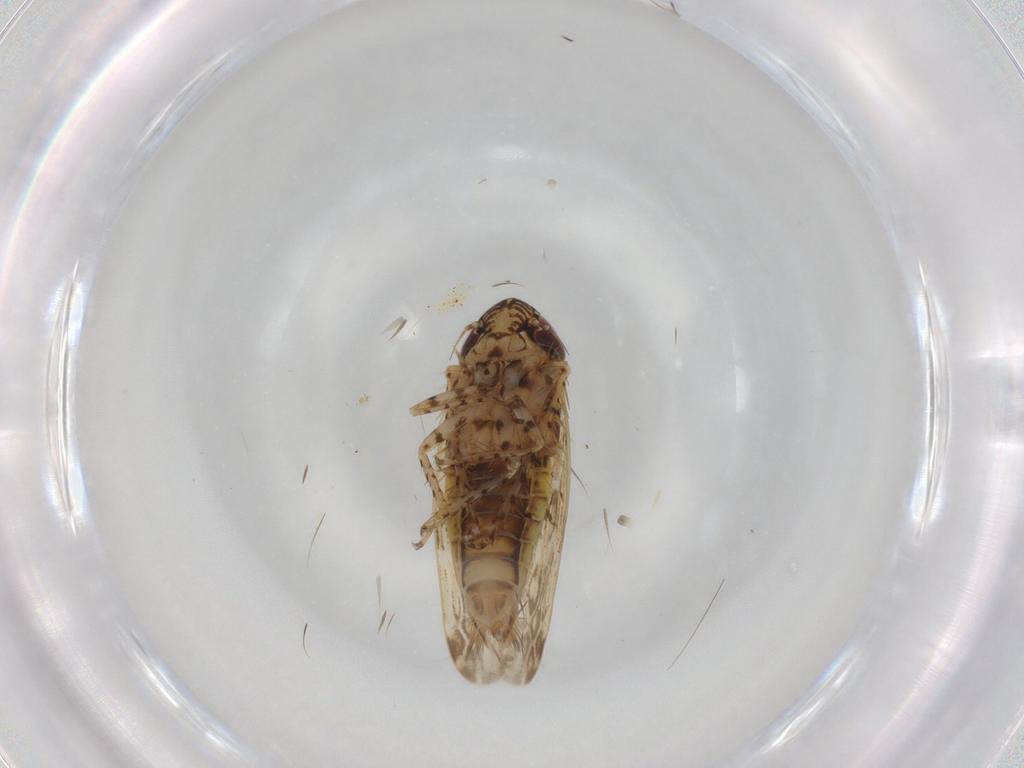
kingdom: Animalia
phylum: Arthropoda
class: Insecta
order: Hemiptera
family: Cicadellidae
